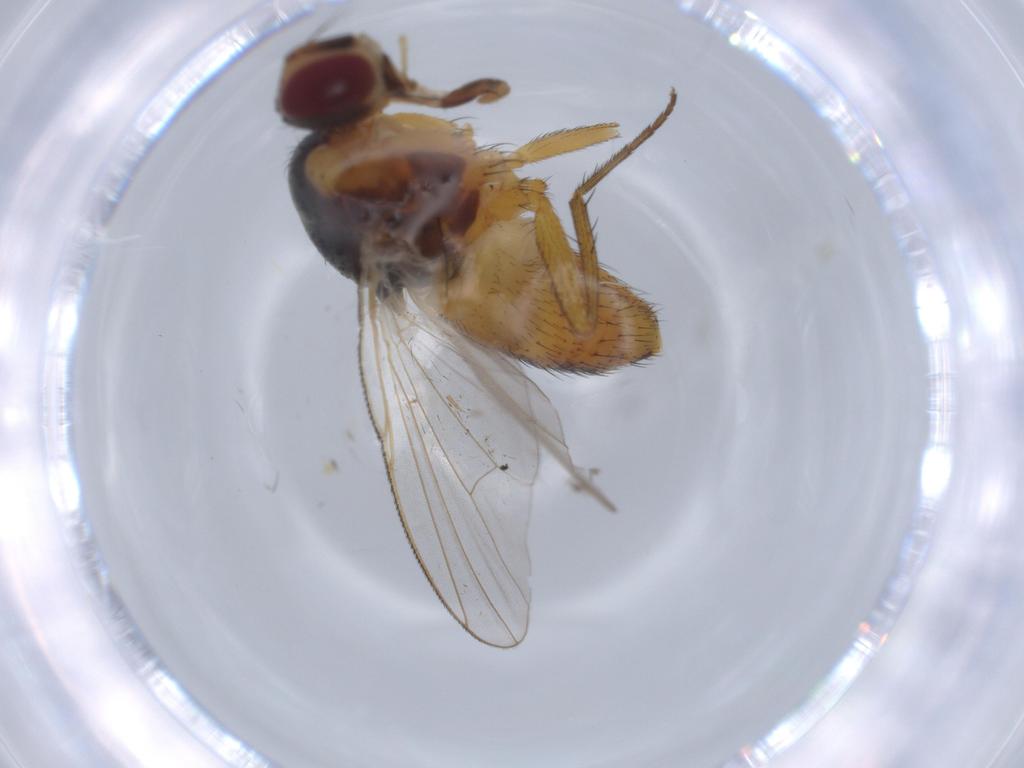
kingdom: Animalia
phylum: Arthropoda
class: Insecta
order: Diptera
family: Muscidae
